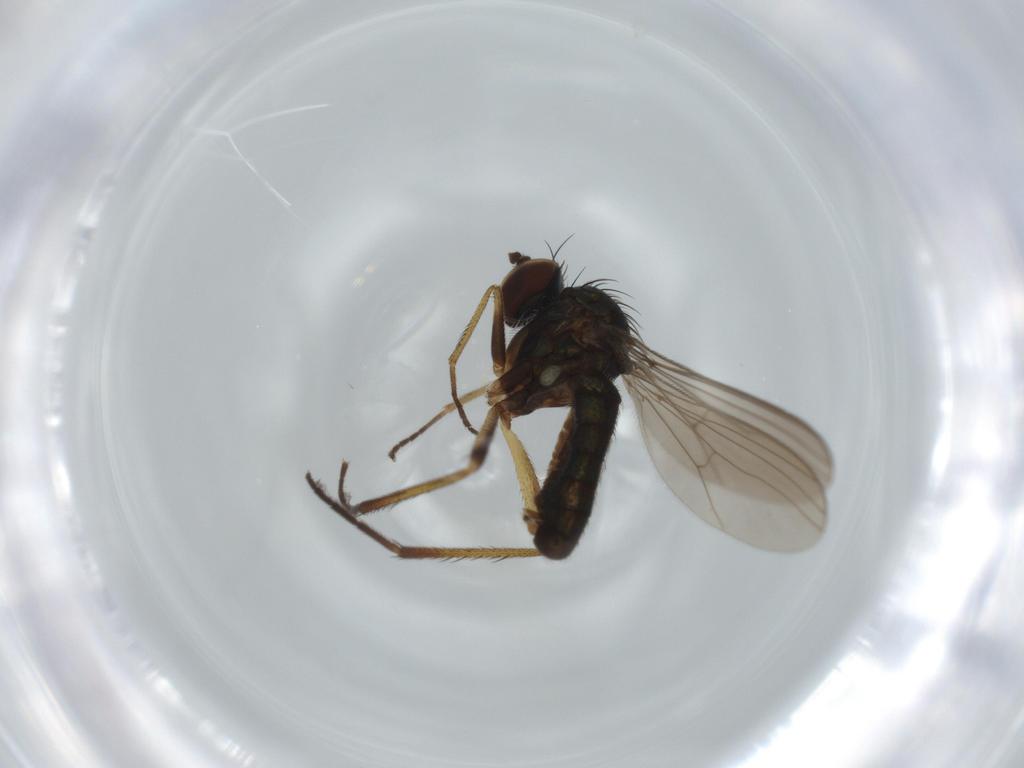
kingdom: Animalia
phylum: Arthropoda
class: Insecta
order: Diptera
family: Dolichopodidae
